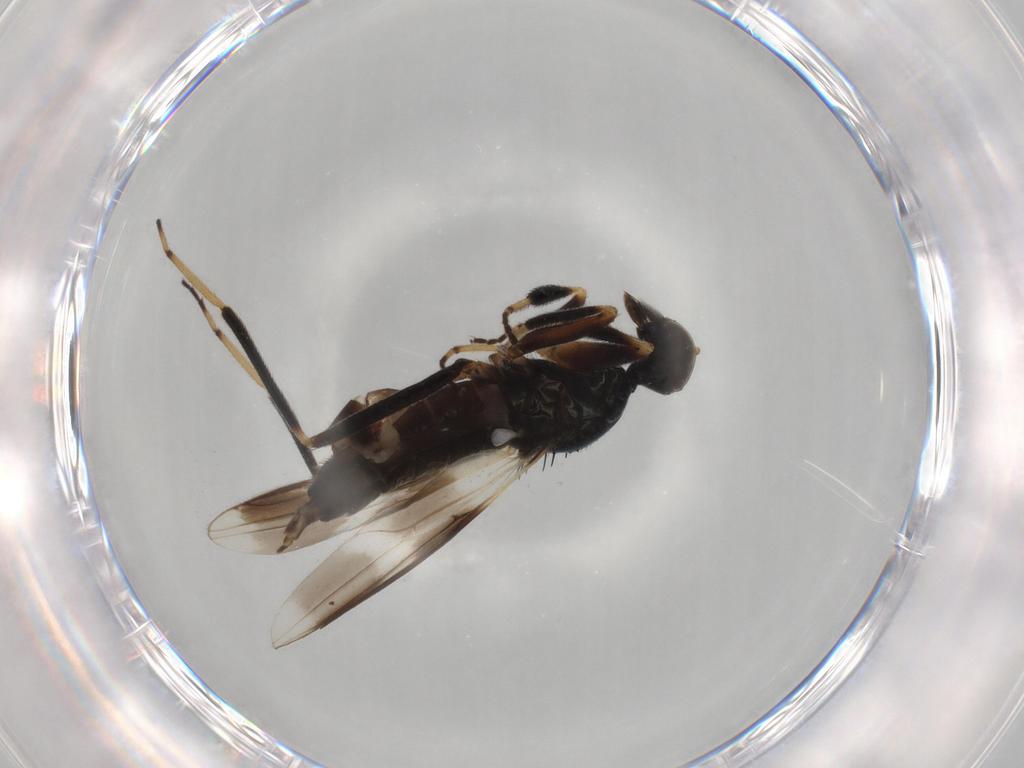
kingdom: Animalia
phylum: Arthropoda
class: Insecta
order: Diptera
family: Hybotidae
